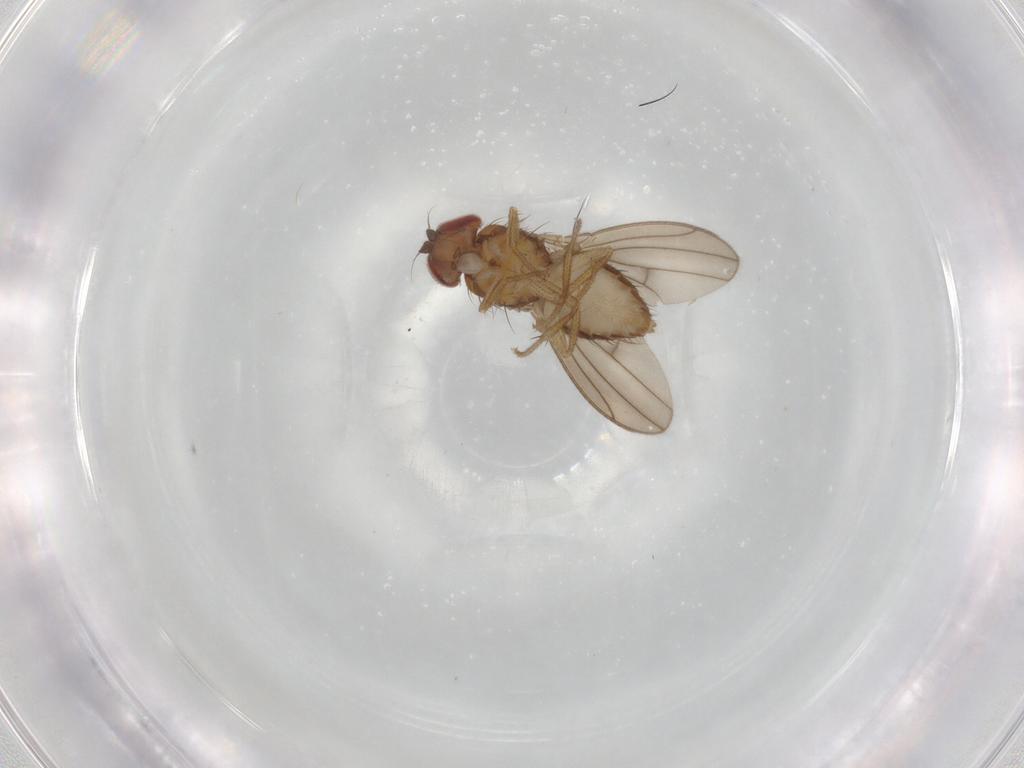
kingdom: Animalia
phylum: Arthropoda
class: Insecta
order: Diptera
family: Drosophilidae
